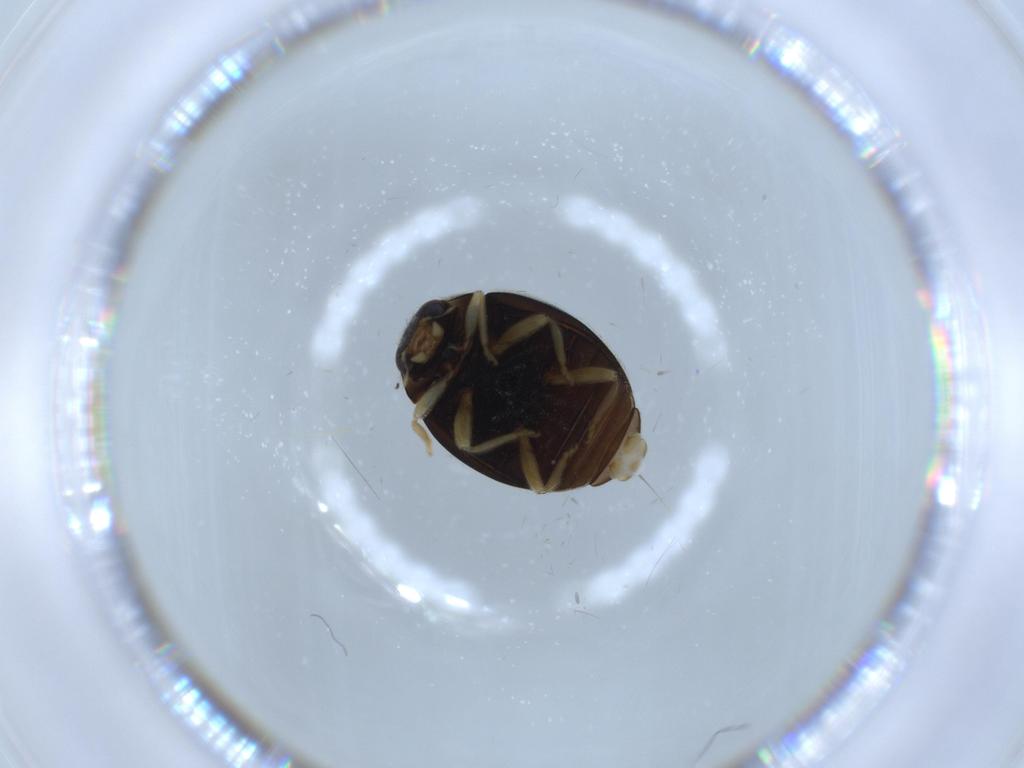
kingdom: Animalia
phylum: Arthropoda
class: Insecta
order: Coleoptera
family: Coccinellidae
